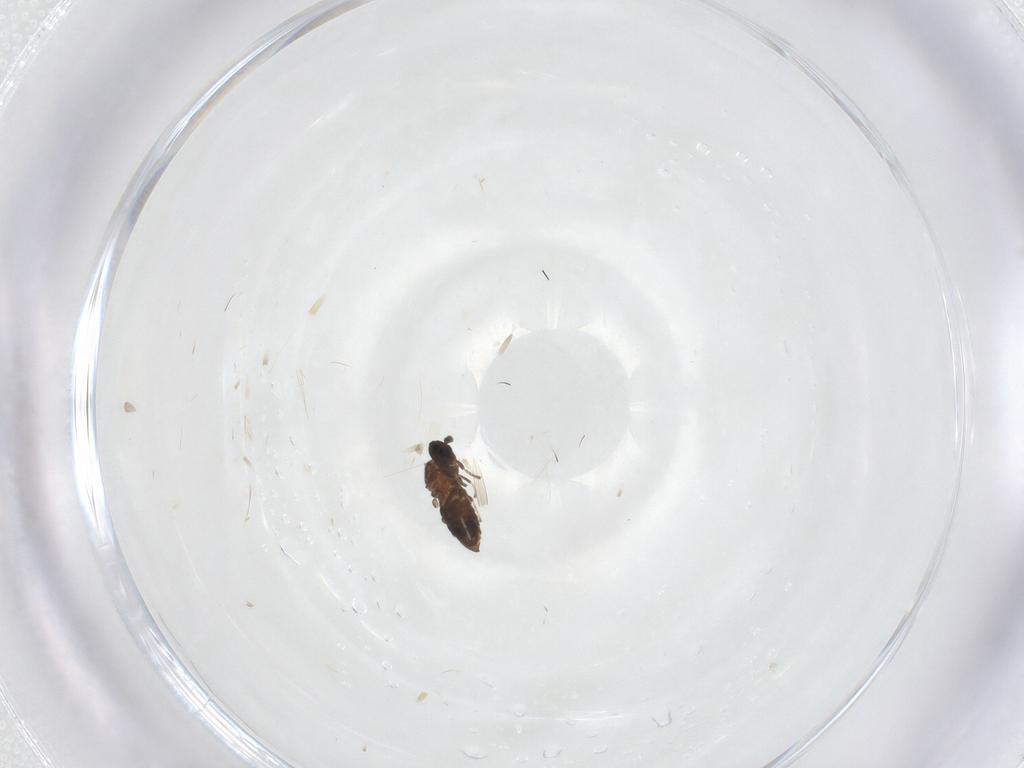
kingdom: Animalia
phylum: Arthropoda
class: Insecta
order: Diptera
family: Scatopsidae
